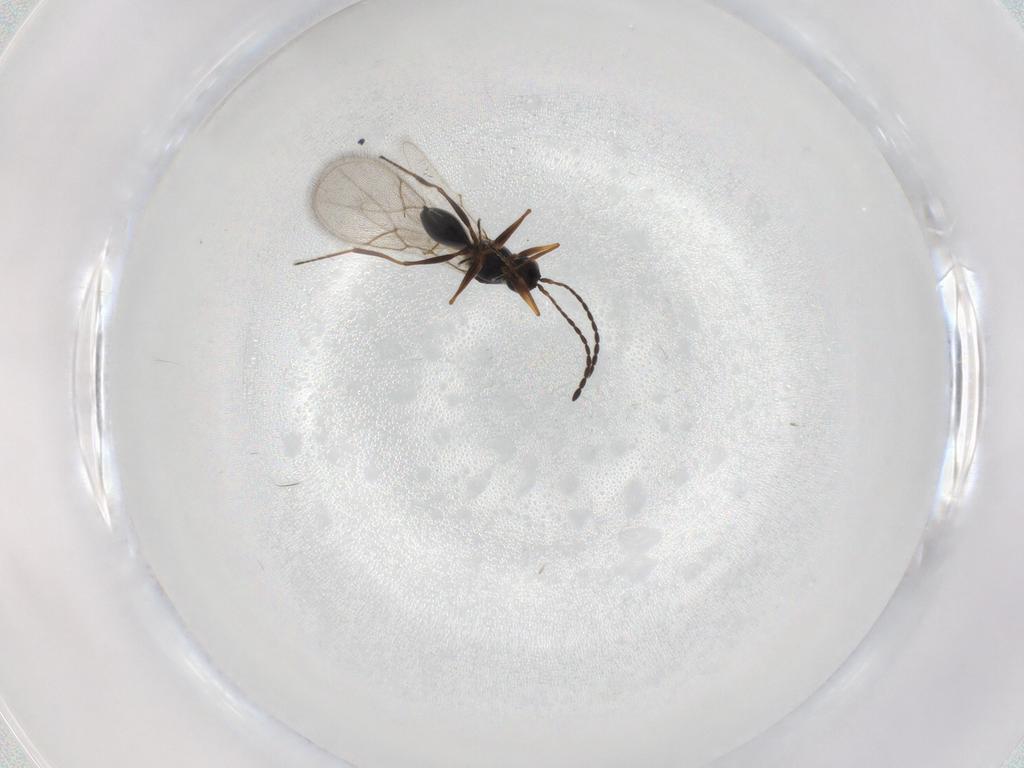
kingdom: Animalia
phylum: Arthropoda
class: Insecta
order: Hymenoptera
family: Figitidae
